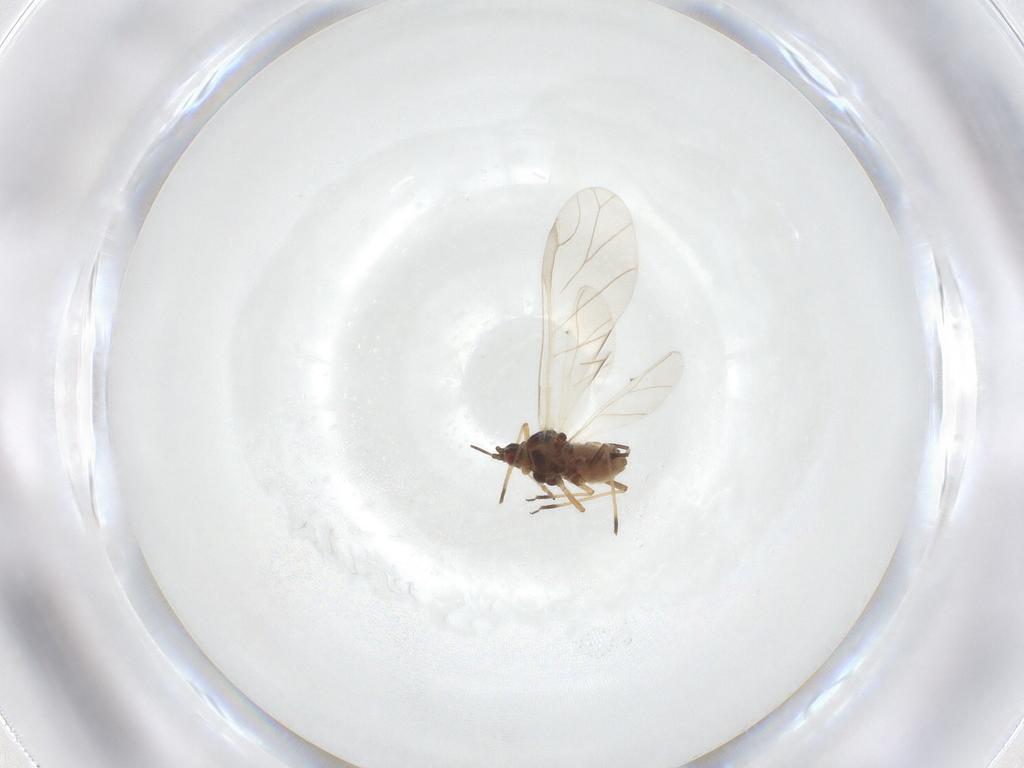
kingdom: Animalia
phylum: Arthropoda
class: Insecta
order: Hemiptera
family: Aphididae
